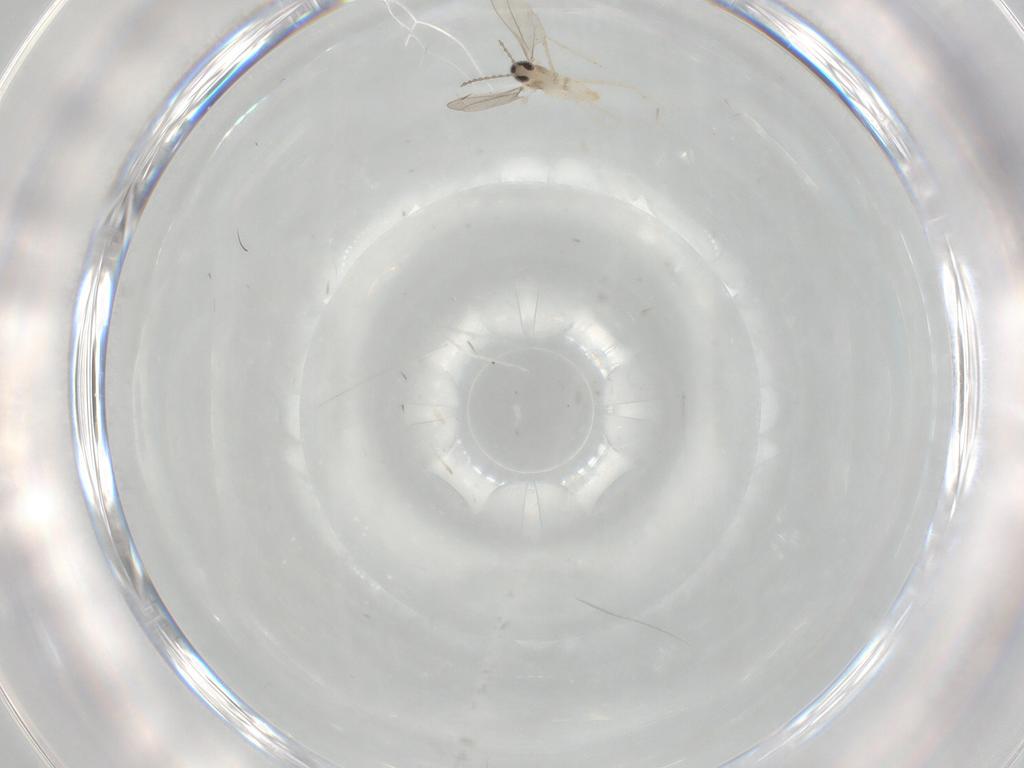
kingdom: Animalia
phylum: Arthropoda
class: Insecta
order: Diptera
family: Cecidomyiidae
